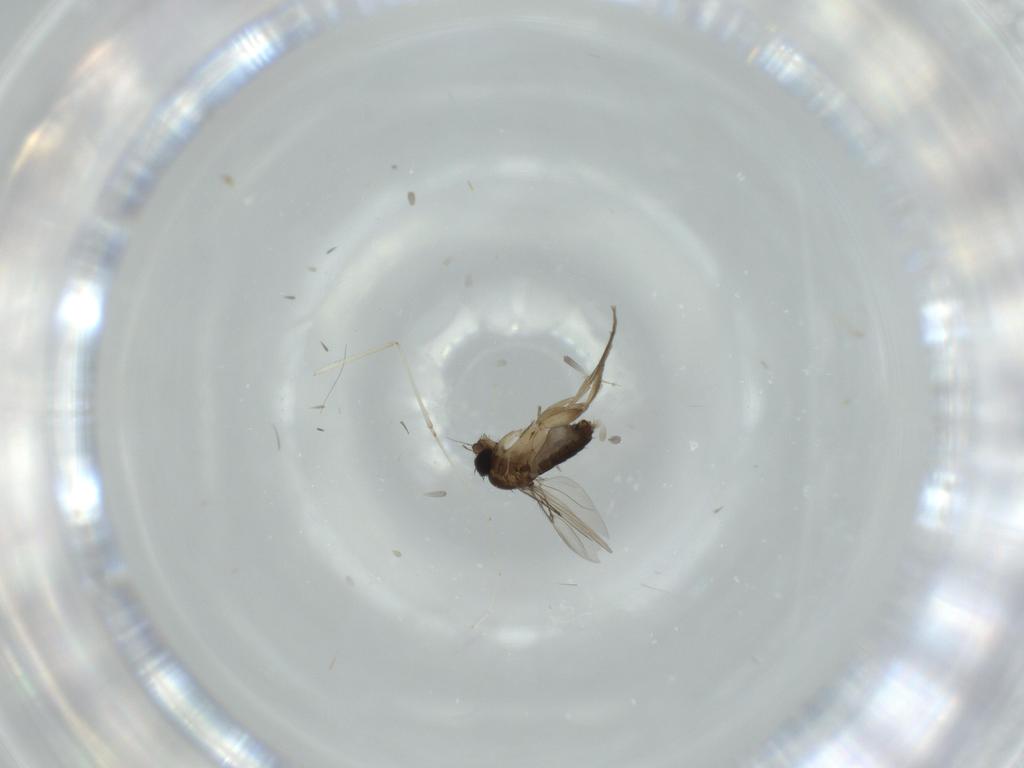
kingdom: Animalia
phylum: Arthropoda
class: Insecta
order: Diptera
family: Phoridae
